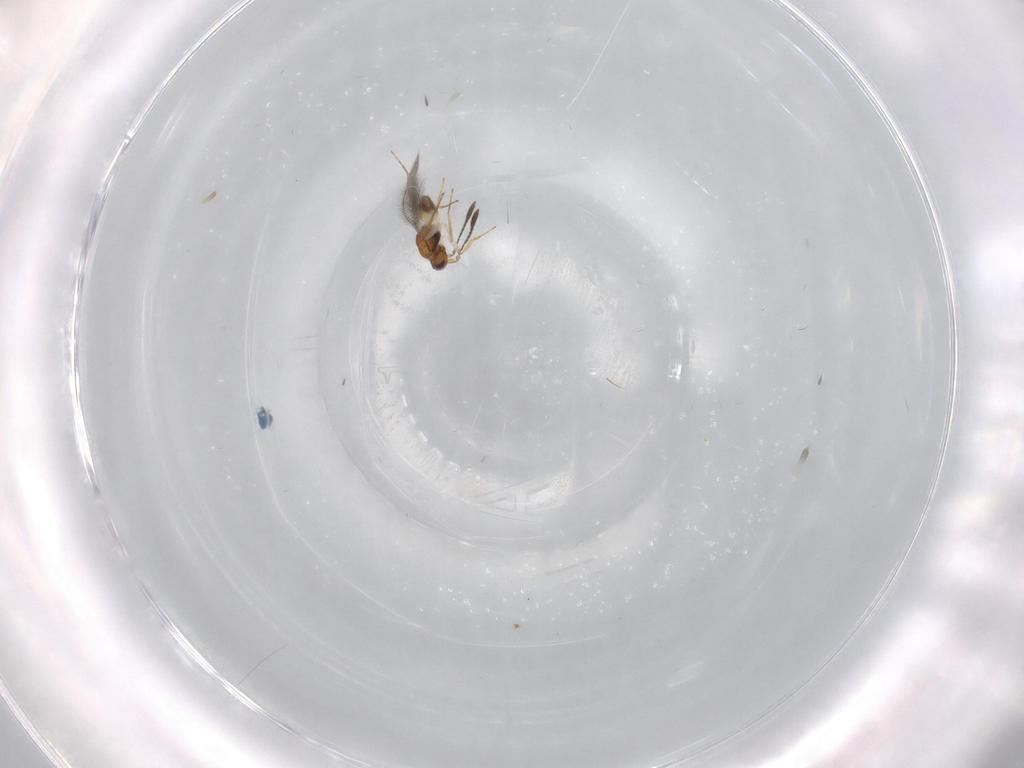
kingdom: Animalia
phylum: Arthropoda
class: Insecta
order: Hymenoptera
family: Mymaridae
